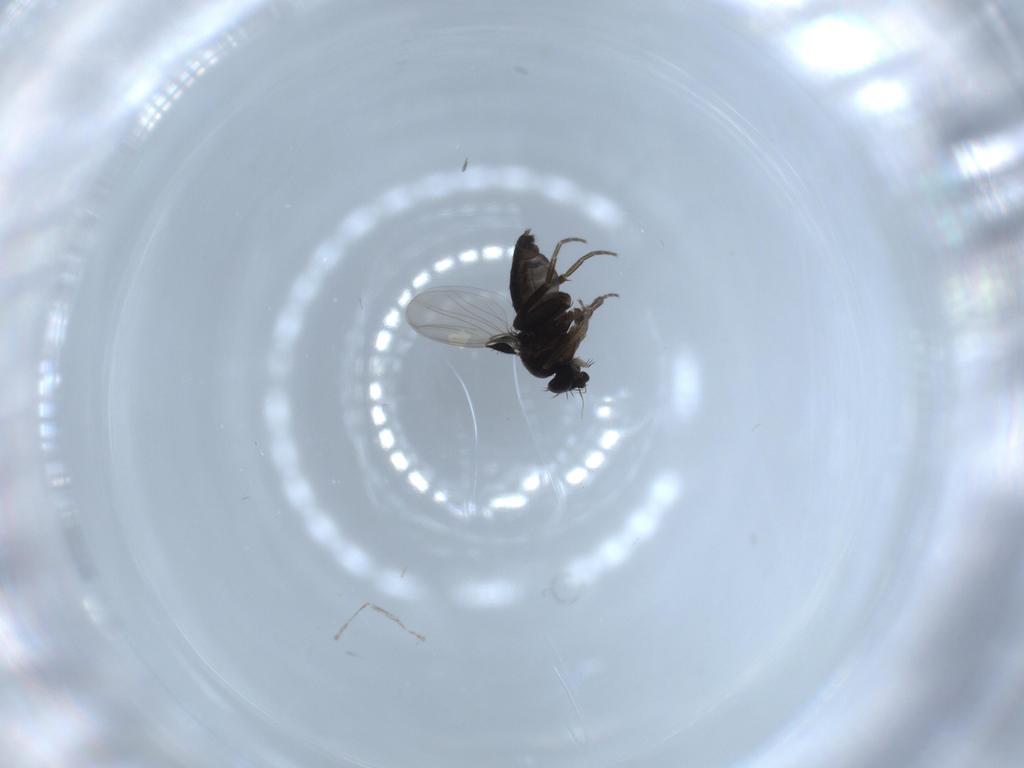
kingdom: Animalia
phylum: Arthropoda
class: Insecta
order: Diptera
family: Phoridae
